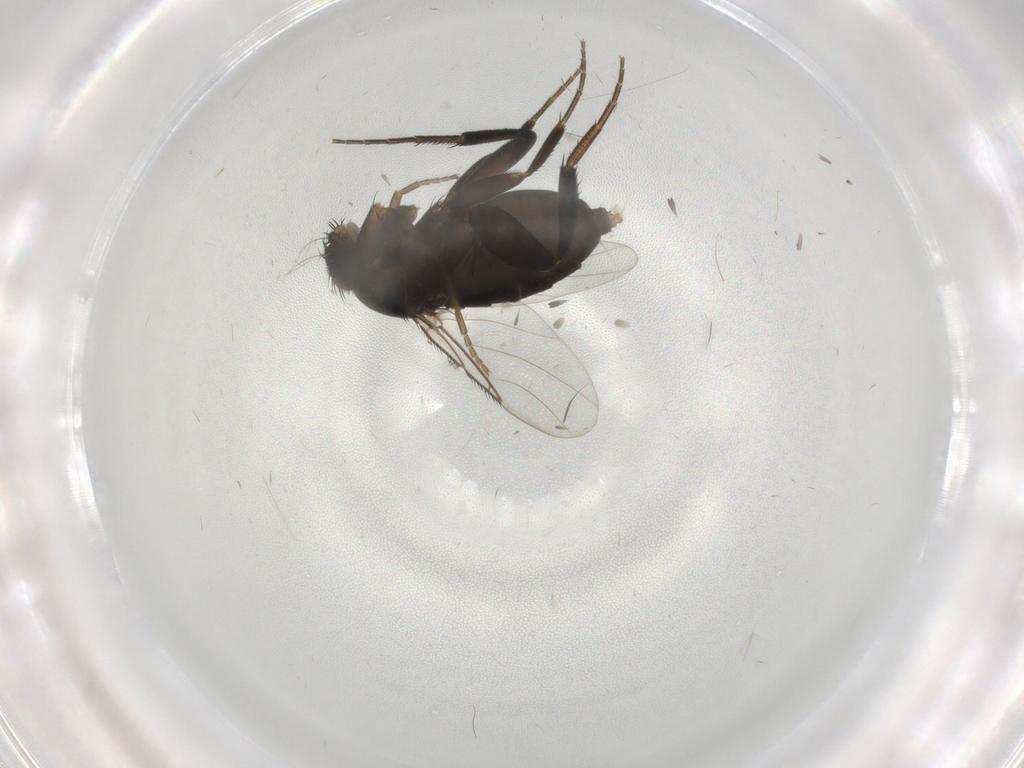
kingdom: Animalia
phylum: Arthropoda
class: Insecta
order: Diptera
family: Phoridae
